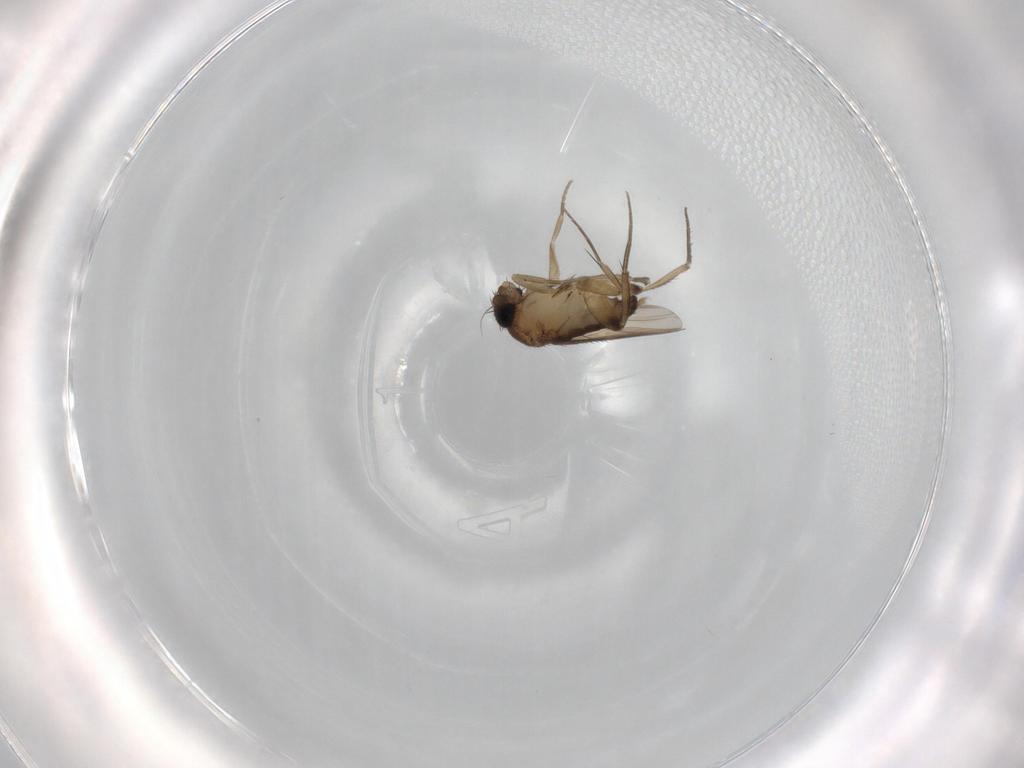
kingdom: Animalia
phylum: Arthropoda
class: Insecta
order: Diptera
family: Phoridae
